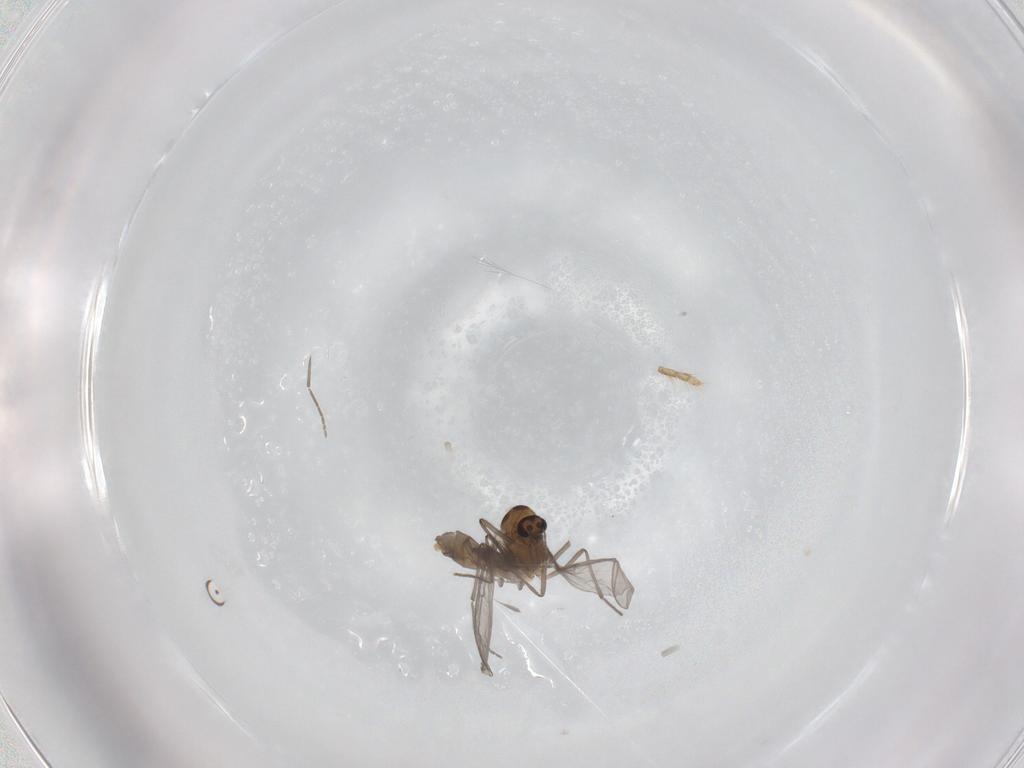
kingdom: Animalia
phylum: Arthropoda
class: Insecta
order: Diptera
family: Chironomidae
